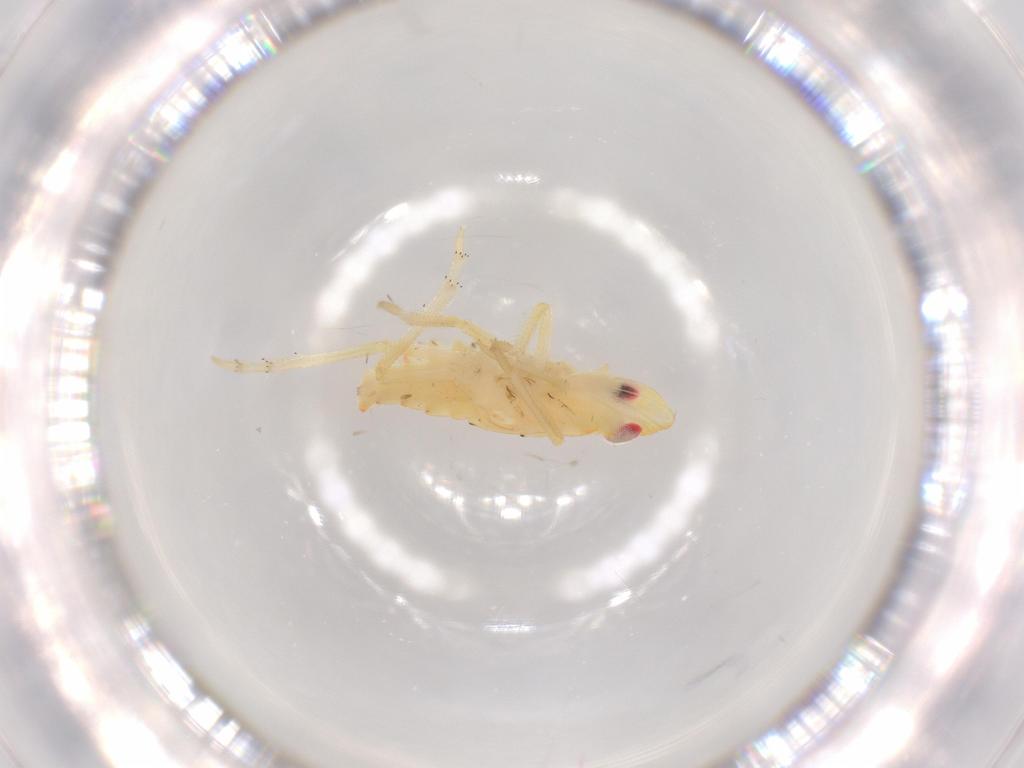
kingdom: Animalia
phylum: Arthropoda
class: Insecta
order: Hemiptera
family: Tropiduchidae
